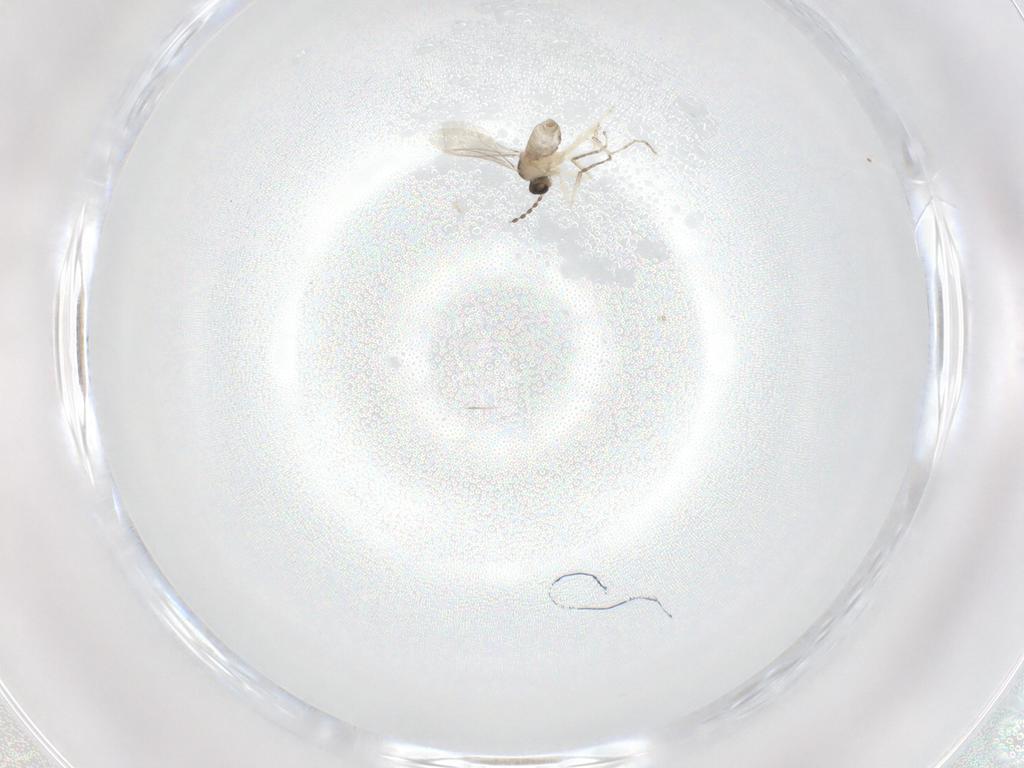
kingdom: Animalia
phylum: Arthropoda
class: Insecta
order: Diptera
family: Cecidomyiidae
